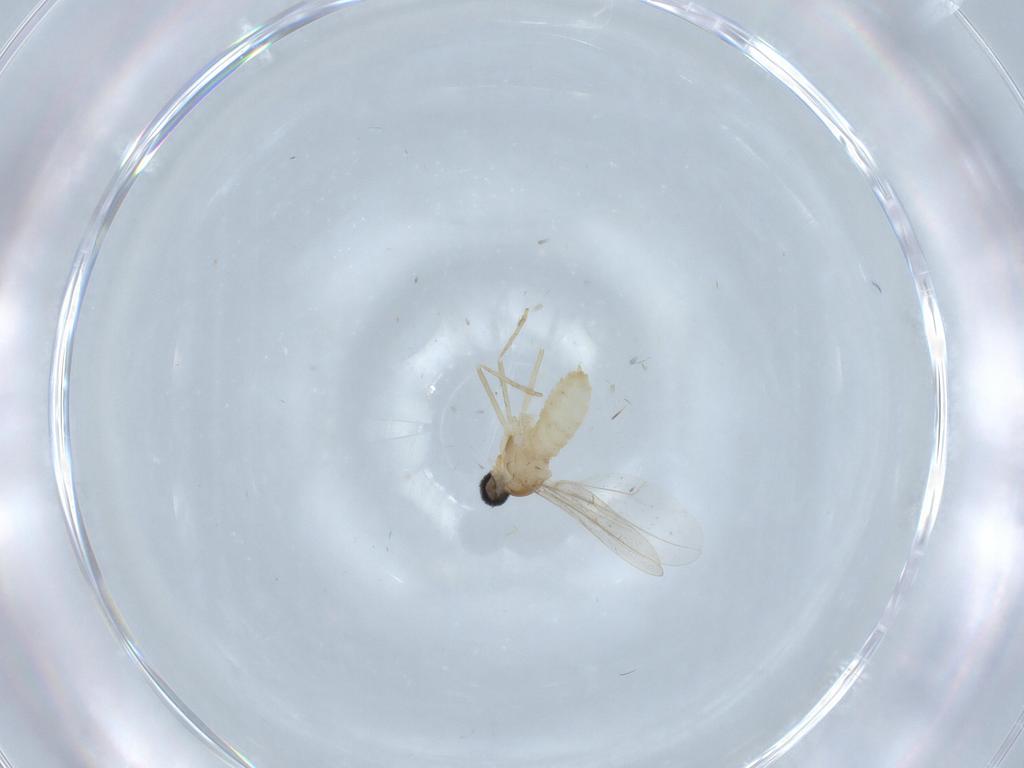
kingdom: Animalia
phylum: Arthropoda
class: Insecta
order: Diptera
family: Cecidomyiidae
